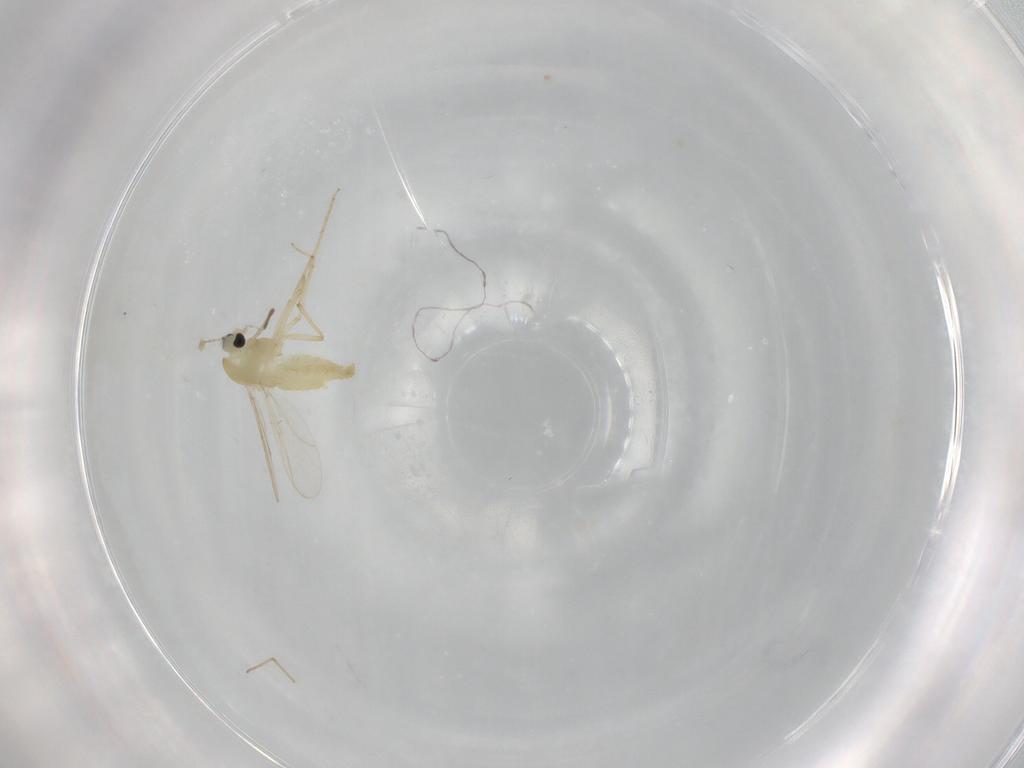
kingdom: Animalia
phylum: Arthropoda
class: Insecta
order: Diptera
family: Chironomidae
